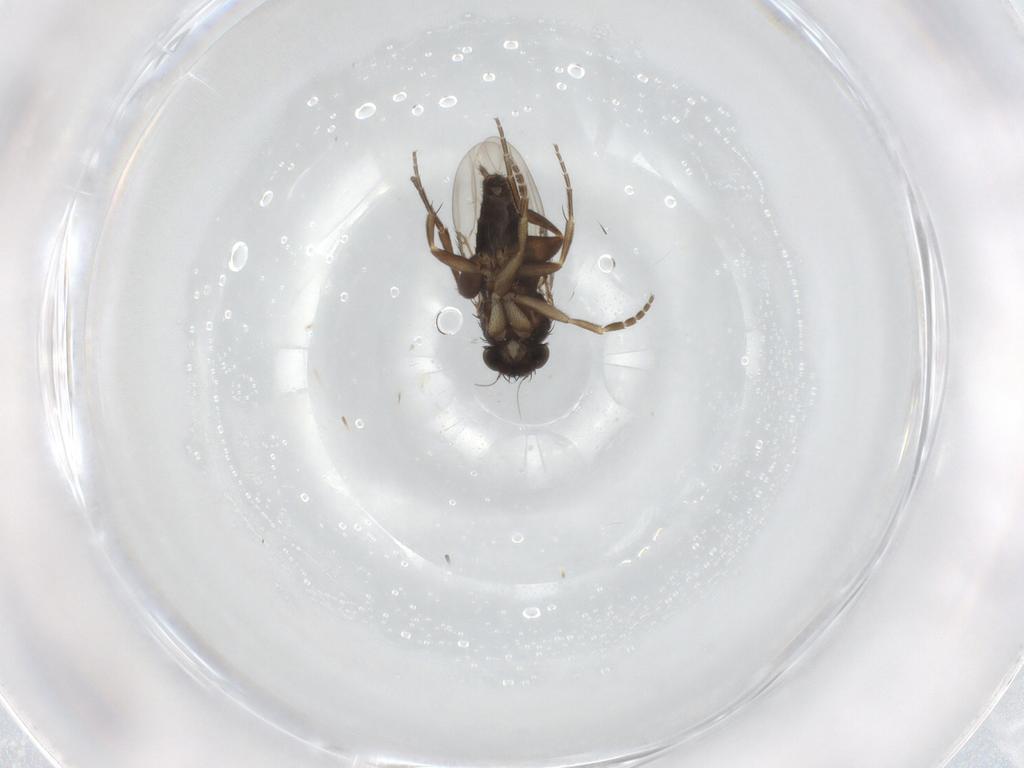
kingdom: Animalia
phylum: Arthropoda
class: Insecta
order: Diptera
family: Phoridae
